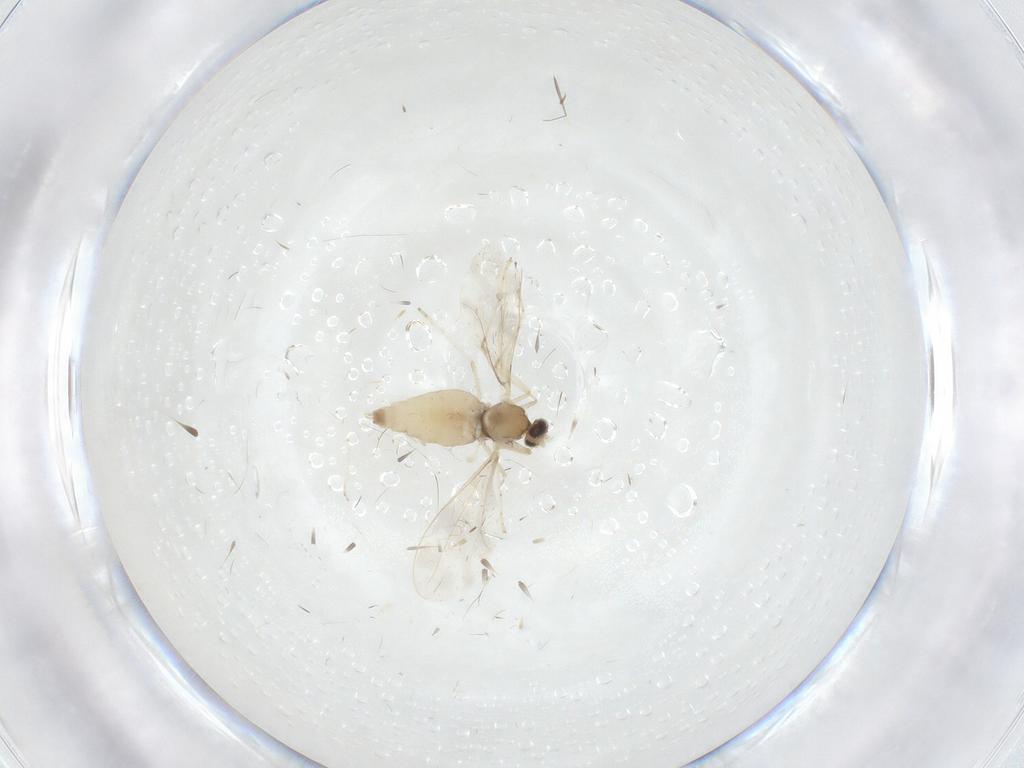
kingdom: Animalia
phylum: Arthropoda
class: Insecta
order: Diptera
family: Cecidomyiidae
